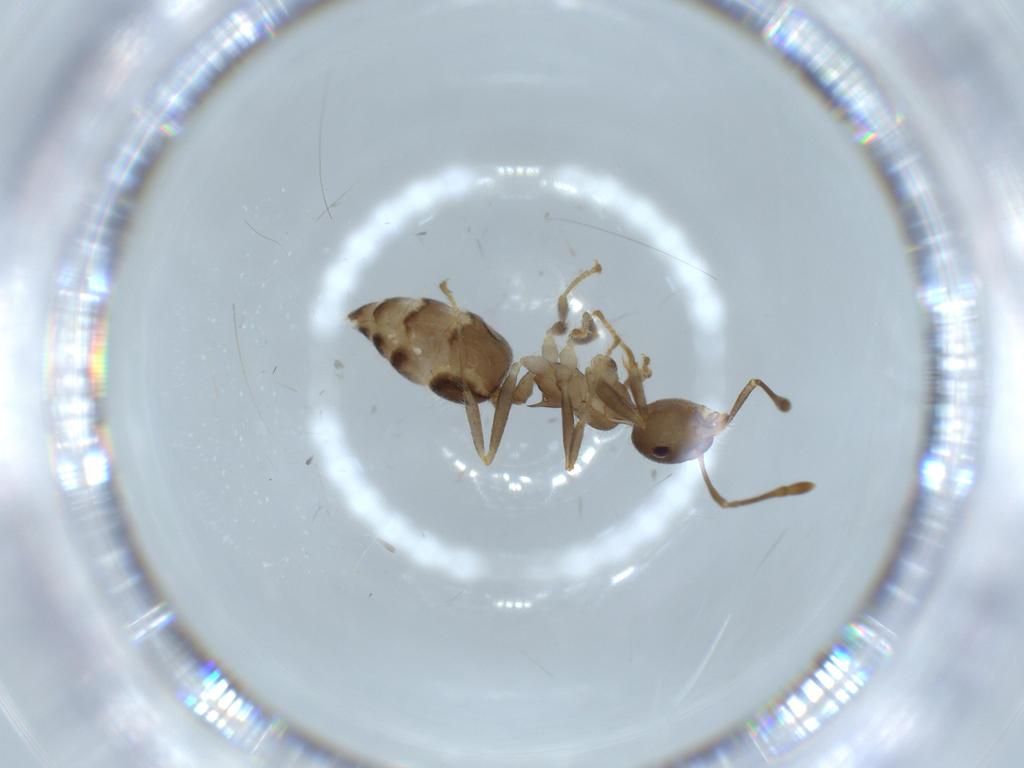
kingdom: Animalia
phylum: Arthropoda
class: Insecta
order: Hymenoptera
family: Formicidae
